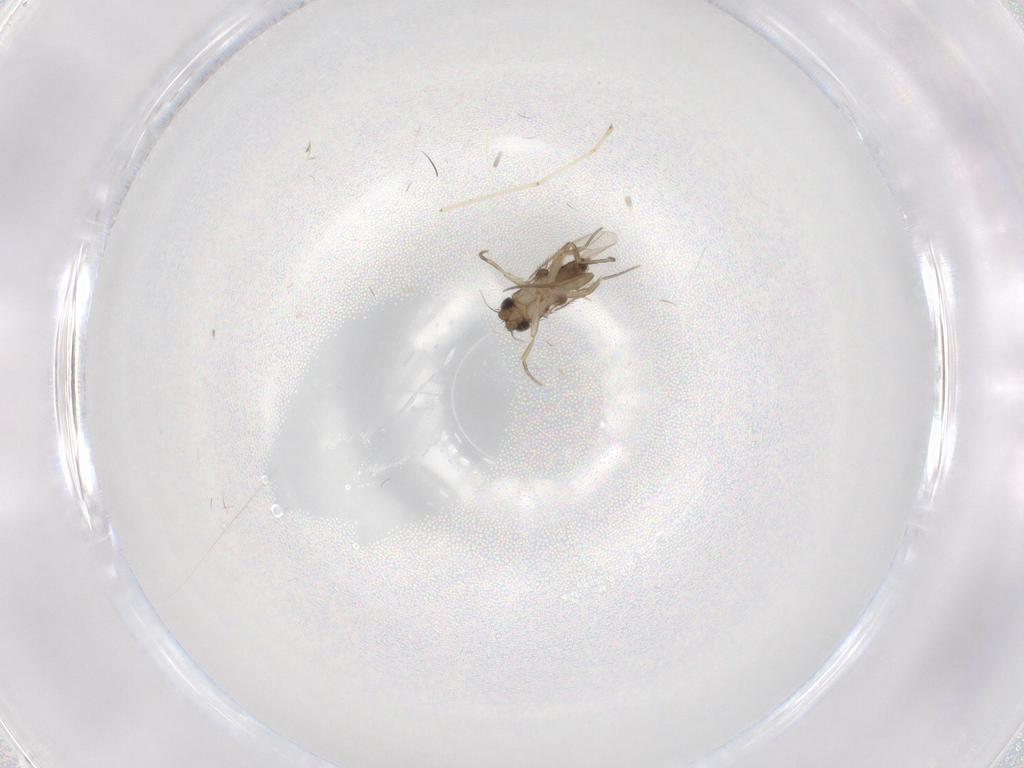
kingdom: Animalia
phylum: Arthropoda
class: Insecta
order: Diptera
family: Phoridae
